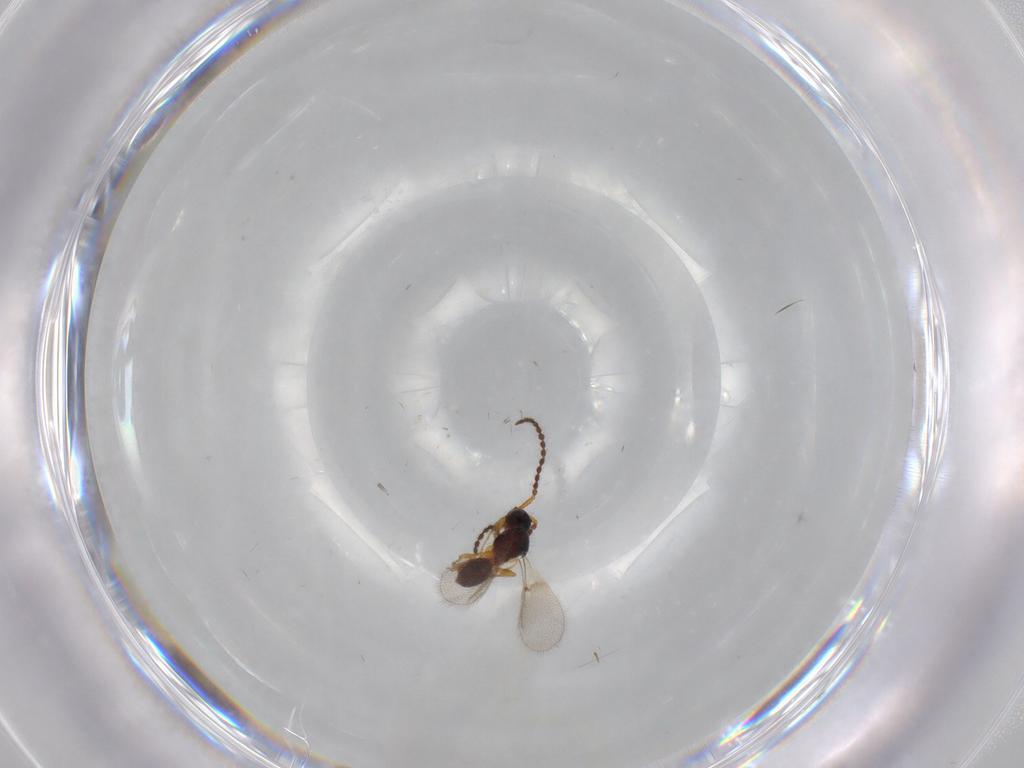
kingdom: Animalia
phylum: Arthropoda
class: Insecta
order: Hymenoptera
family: Diapriidae
